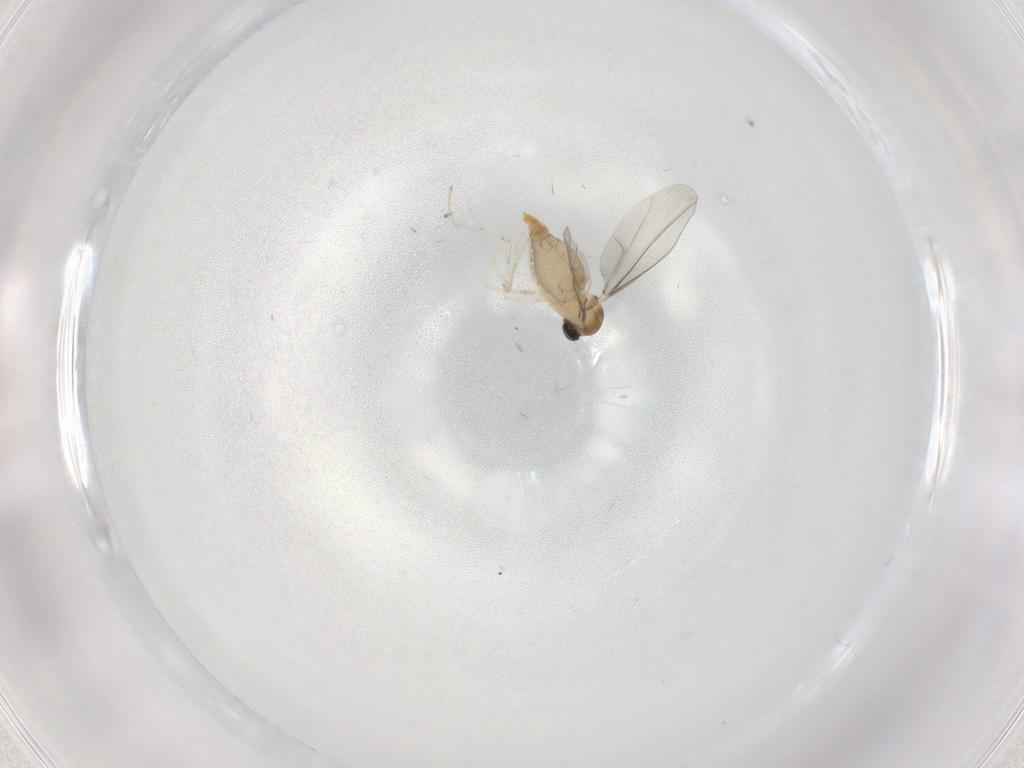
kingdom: Animalia
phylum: Arthropoda
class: Insecta
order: Diptera
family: Cecidomyiidae
